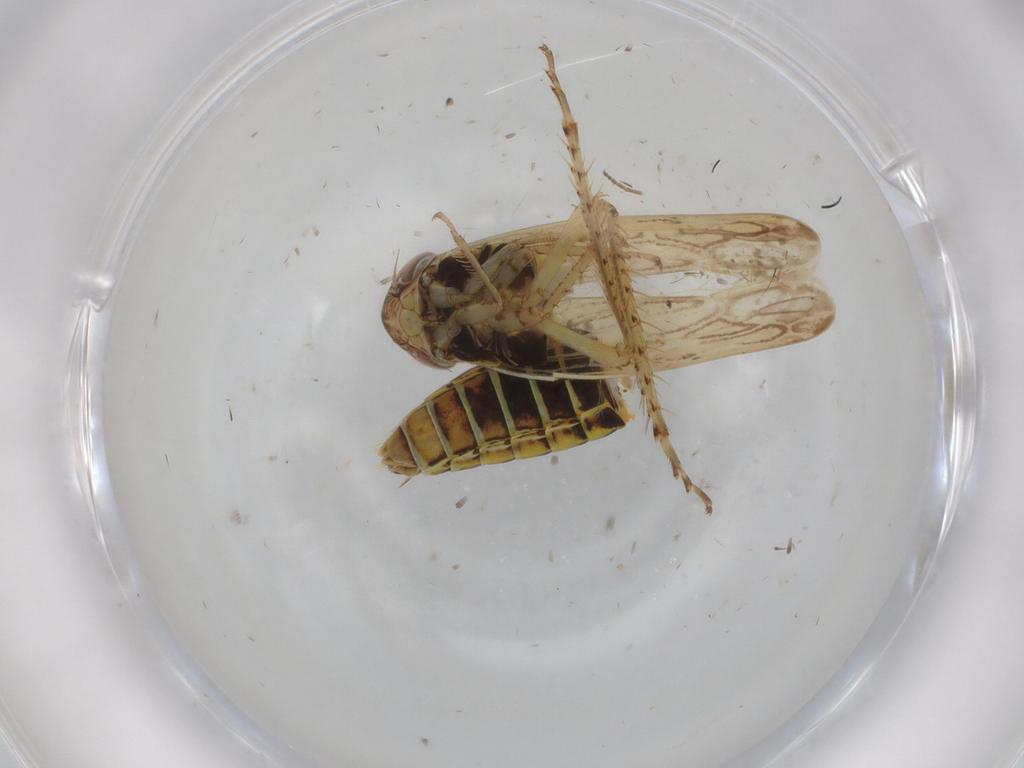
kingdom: Animalia
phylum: Arthropoda
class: Insecta
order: Hemiptera
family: Cicadellidae
